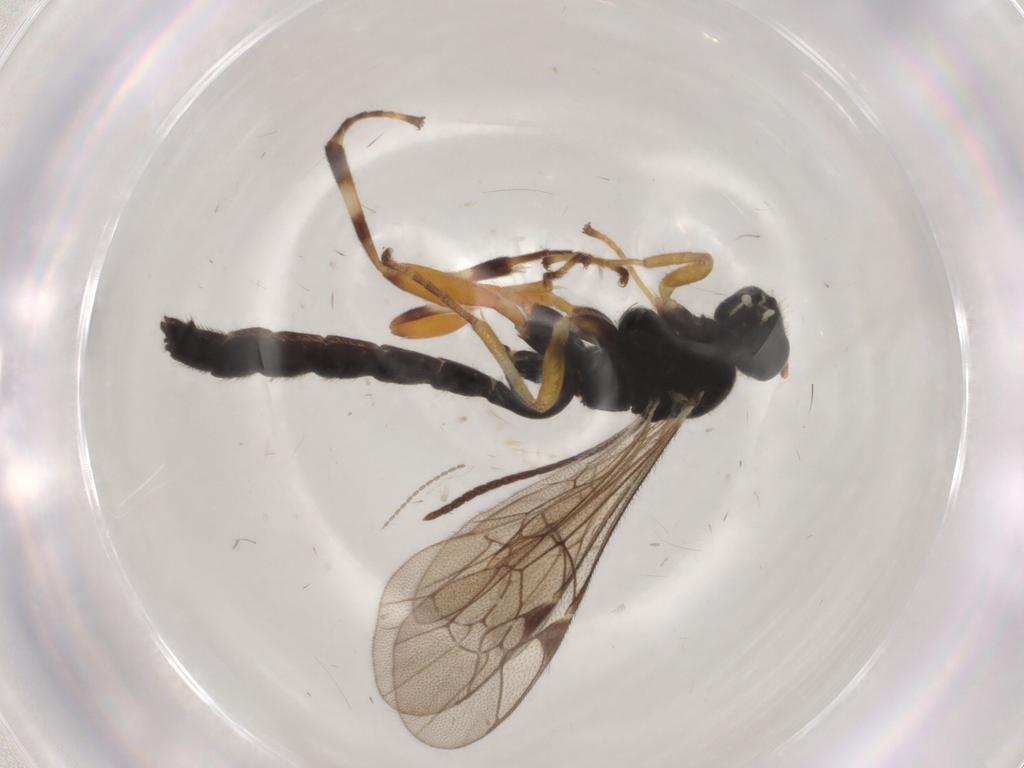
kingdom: Animalia
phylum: Arthropoda
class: Insecta
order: Hymenoptera
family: Ichneumonidae
